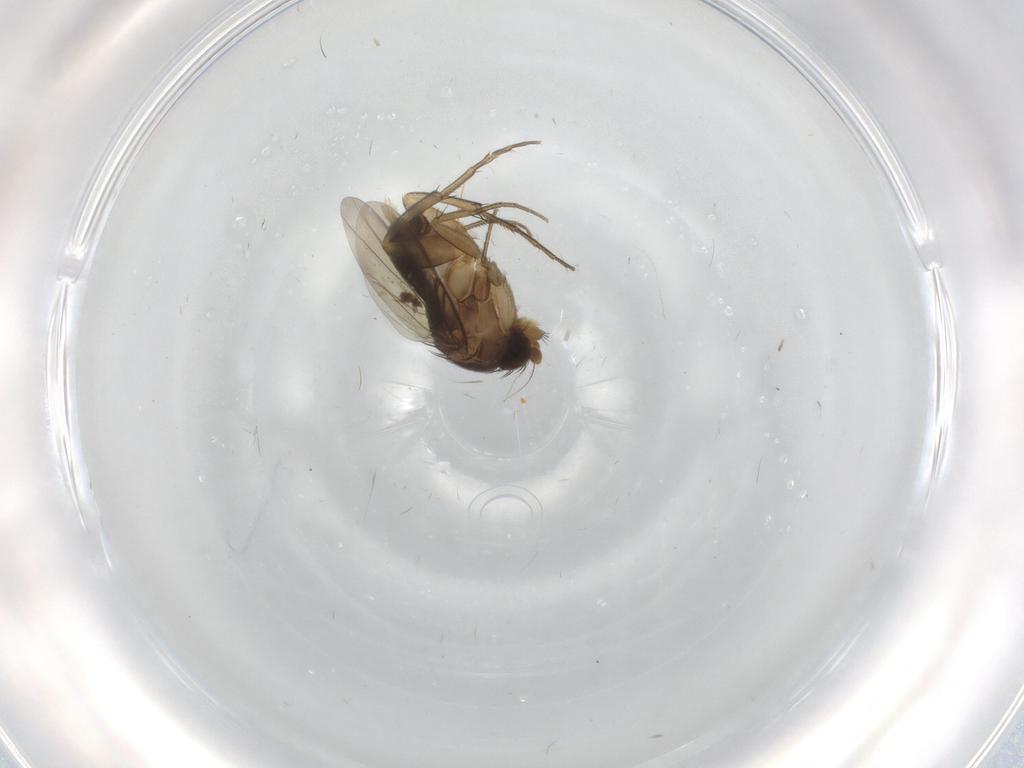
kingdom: Animalia
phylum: Arthropoda
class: Insecta
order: Diptera
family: Phoridae
